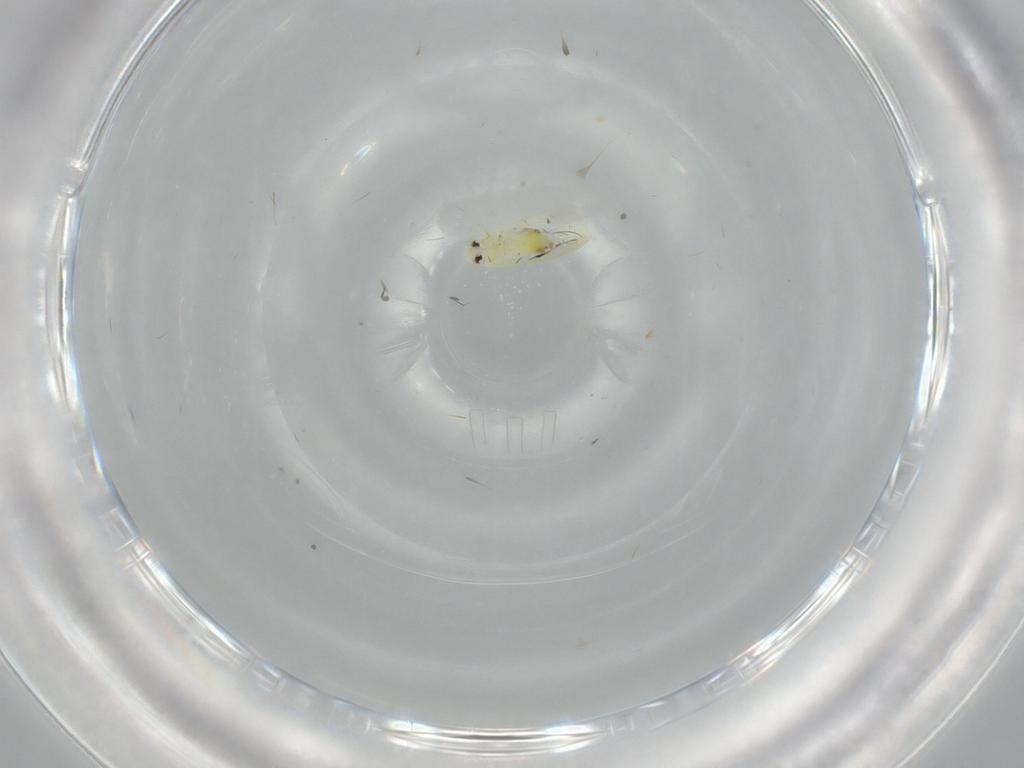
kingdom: Animalia
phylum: Arthropoda
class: Insecta
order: Hemiptera
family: Aleyrodidae
